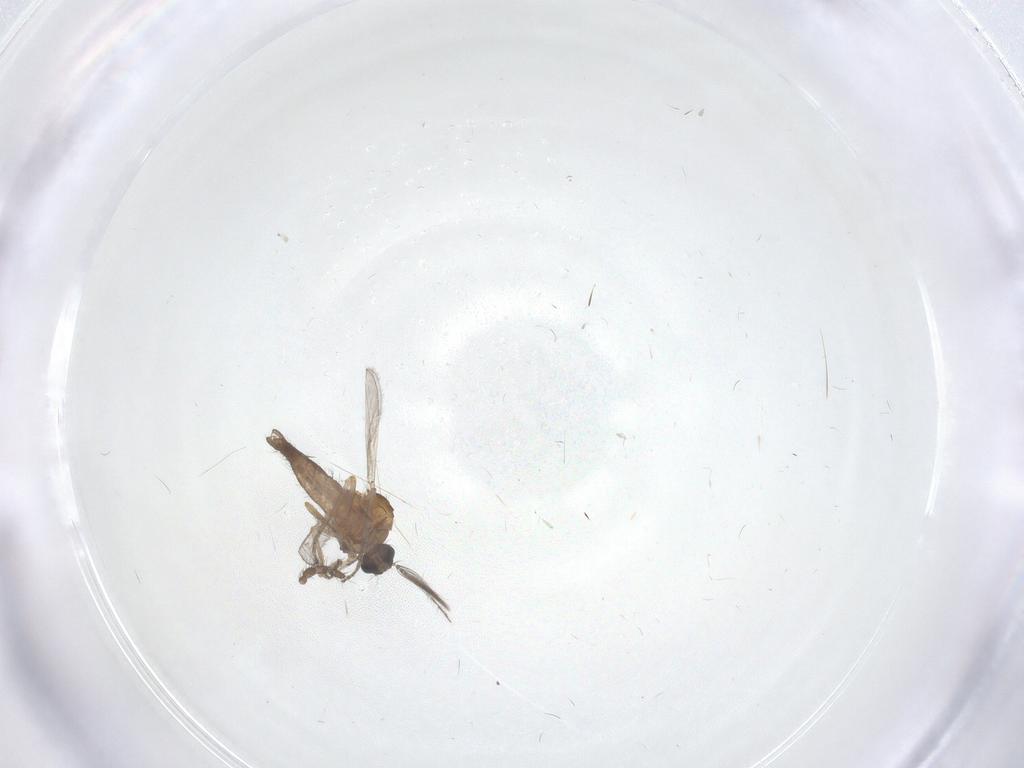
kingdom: Animalia
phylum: Arthropoda
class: Insecta
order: Diptera
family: Ceratopogonidae
